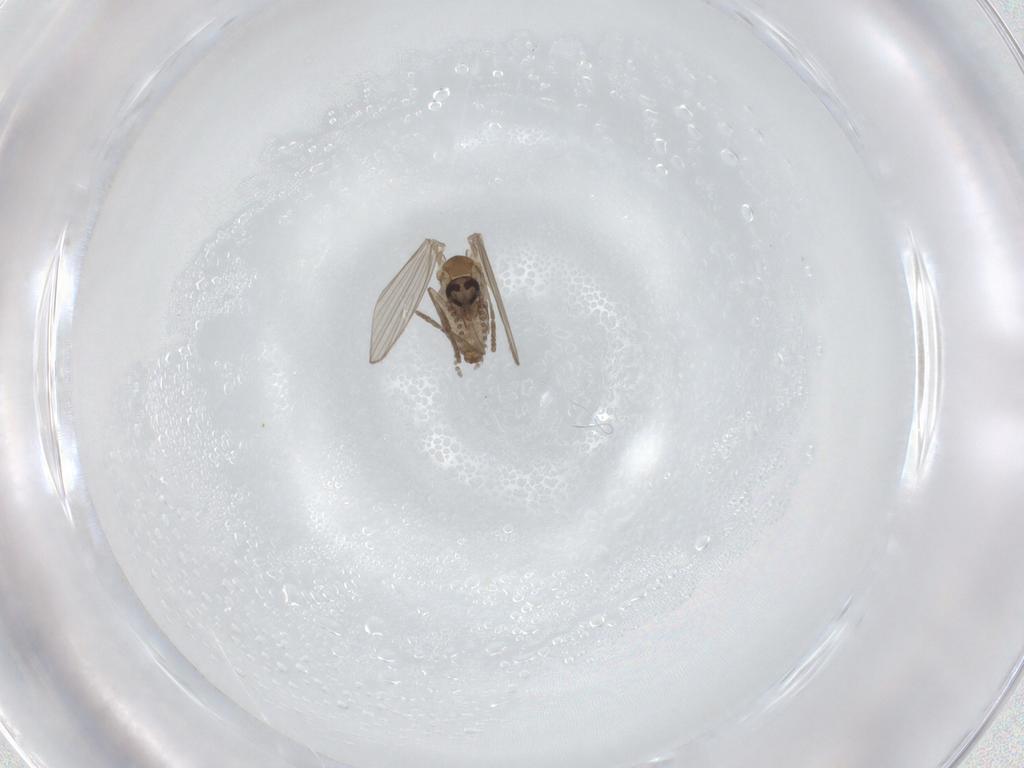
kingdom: Animalia
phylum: Arthropoda
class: Insecta
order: Diptera
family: Psychodidae
